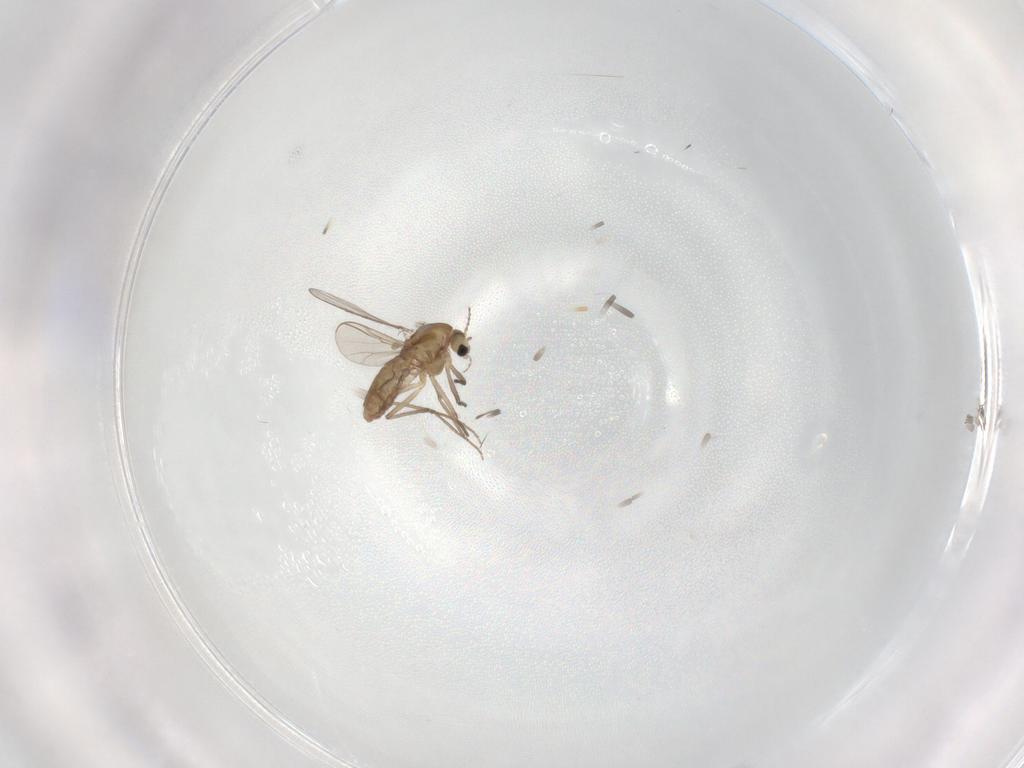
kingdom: Animalia
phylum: Arthropoda
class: Insecta
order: Diptera
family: Chironomidae
